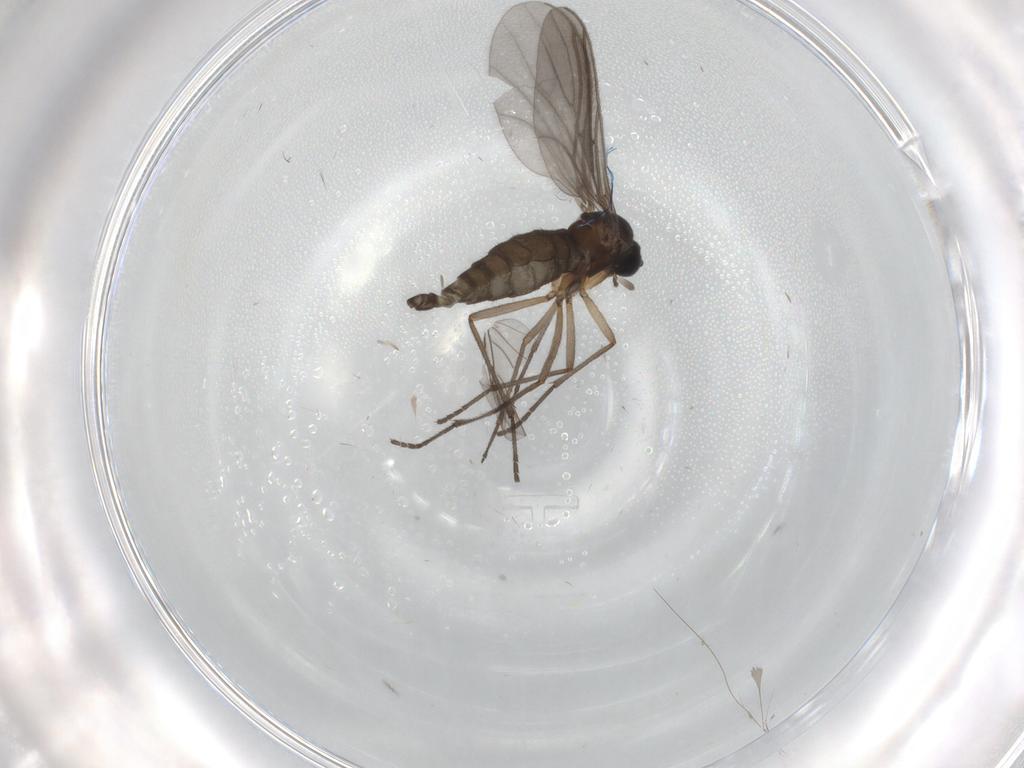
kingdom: Animalia
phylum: Arthropoda
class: Insecta
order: Diptera
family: Sciaridae
